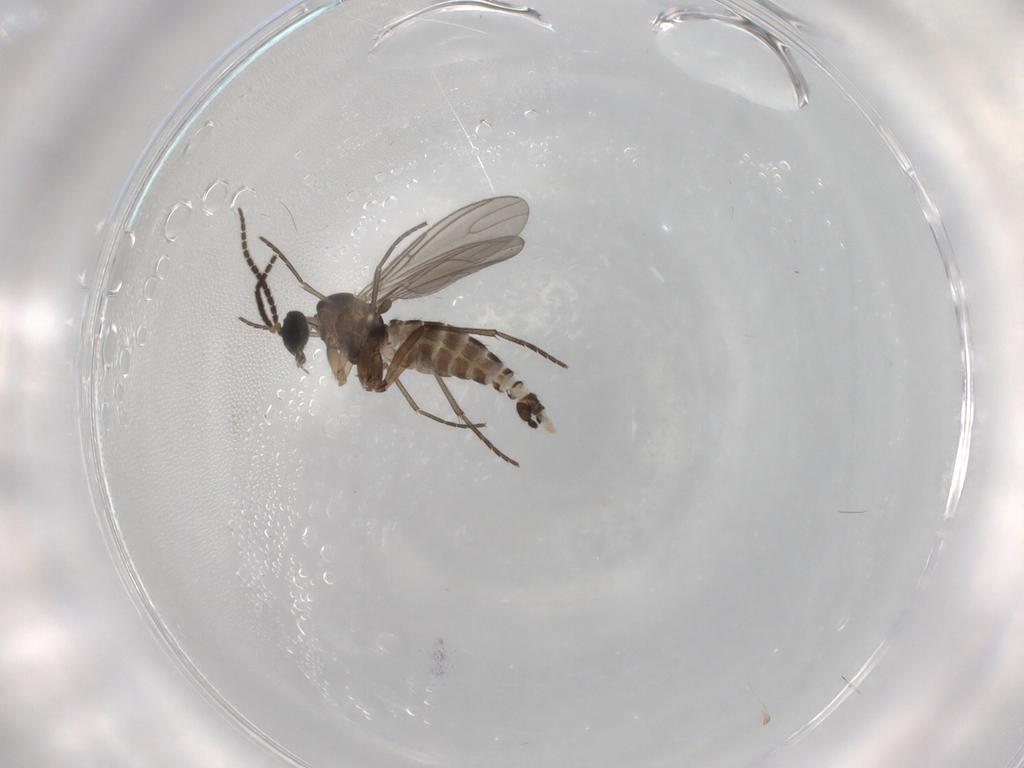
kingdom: Animalia
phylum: Arthropoda
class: Insecta
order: Diptera
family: Sciaridae
